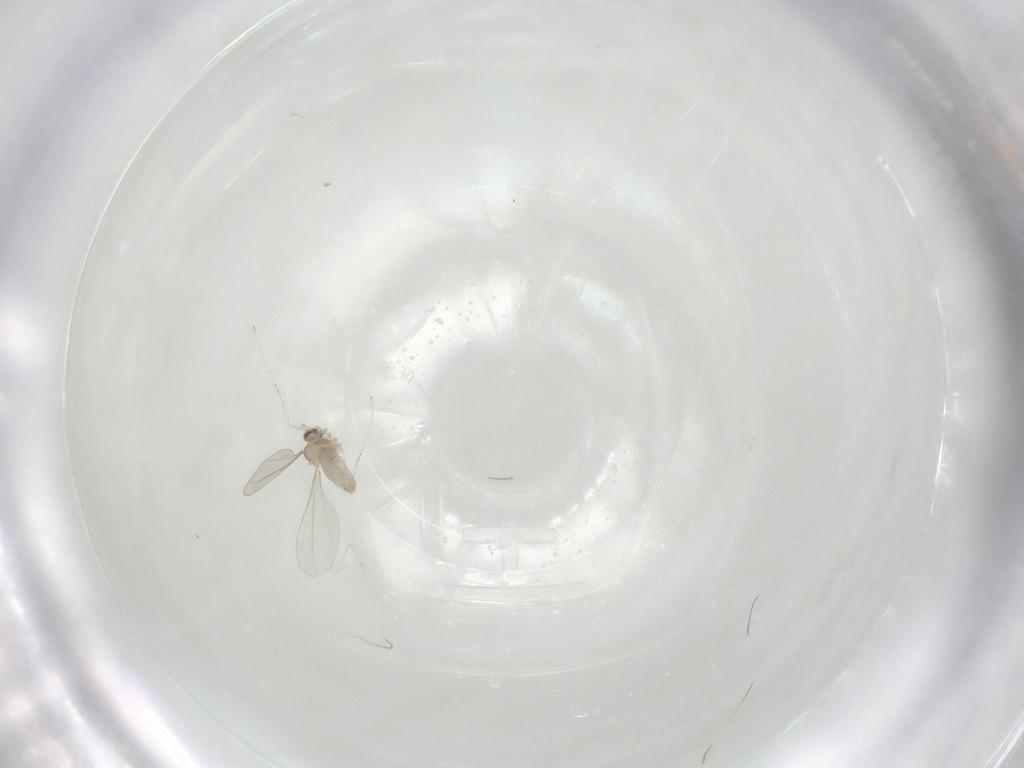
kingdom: Animalia
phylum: Arthropoda
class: Insecta
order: Diptera
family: Cecidomyiidae
